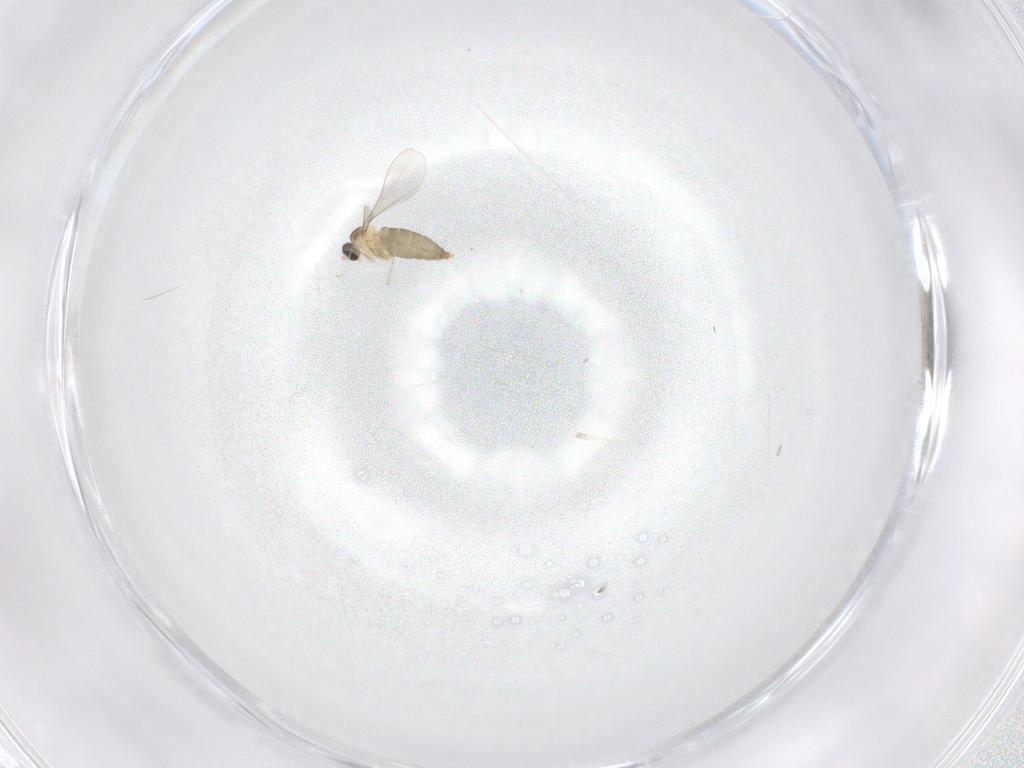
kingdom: Animalia
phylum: Arthropoda
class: Insecta
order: Diptera
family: Cecidomyiidae
